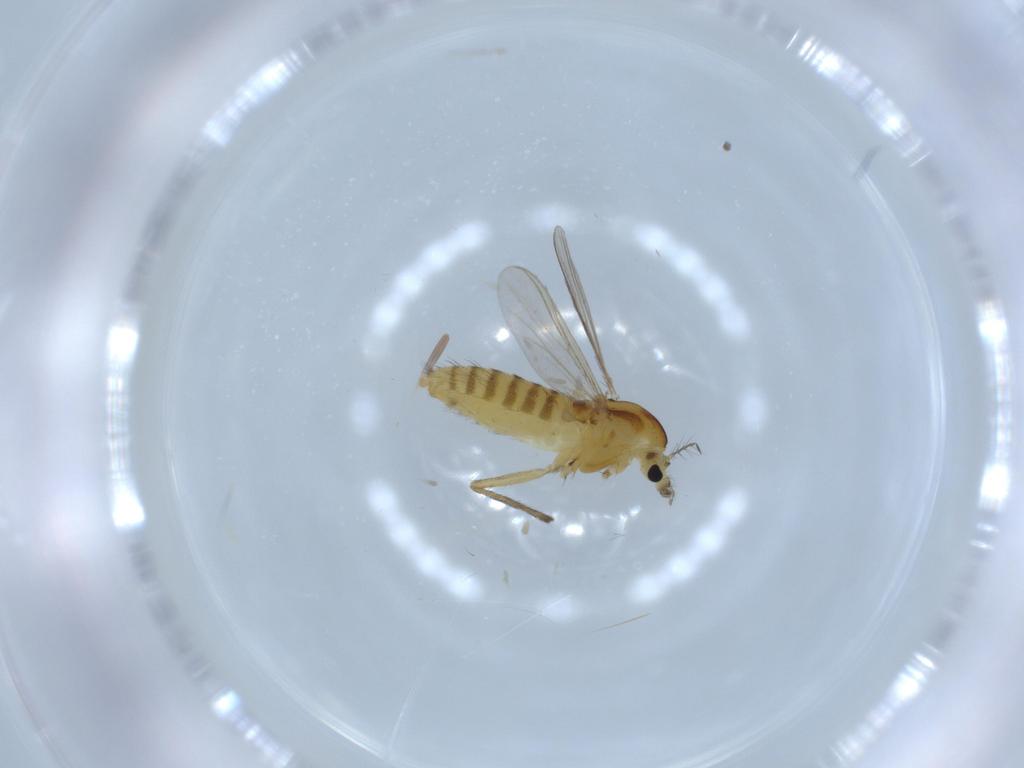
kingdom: Animalia
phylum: Arthropoda
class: Insecta
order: Diptera
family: Chironomidae
